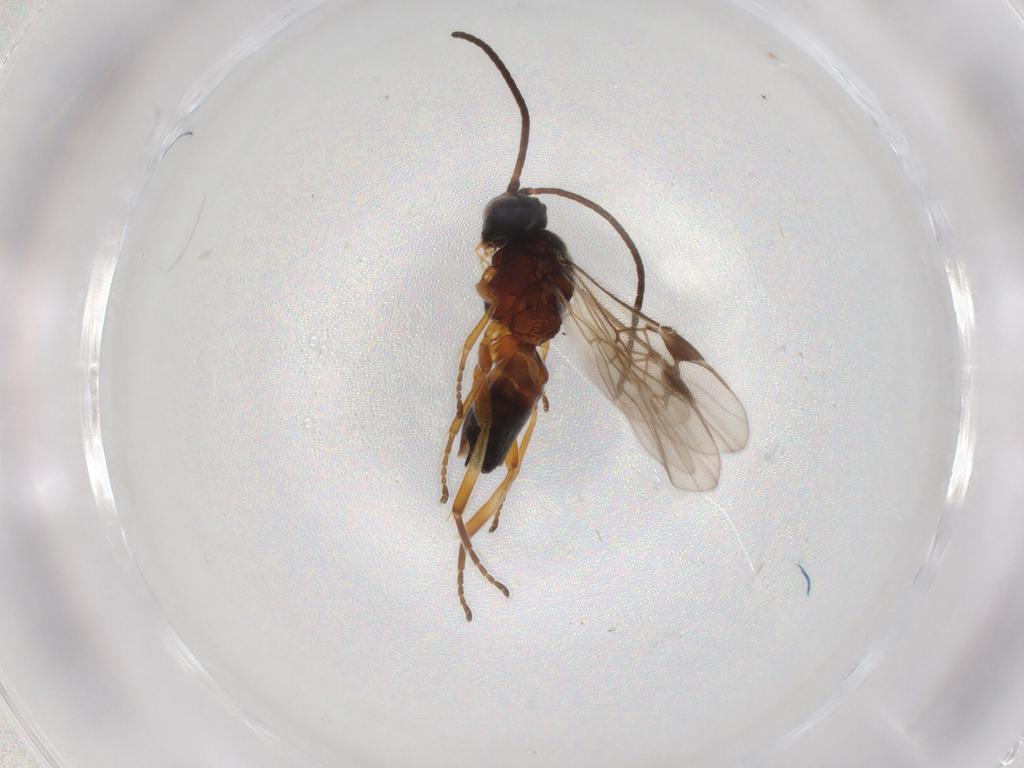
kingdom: Animalia
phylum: Arthropoda
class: Insecta
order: Hymenoptera
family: Braconidae
